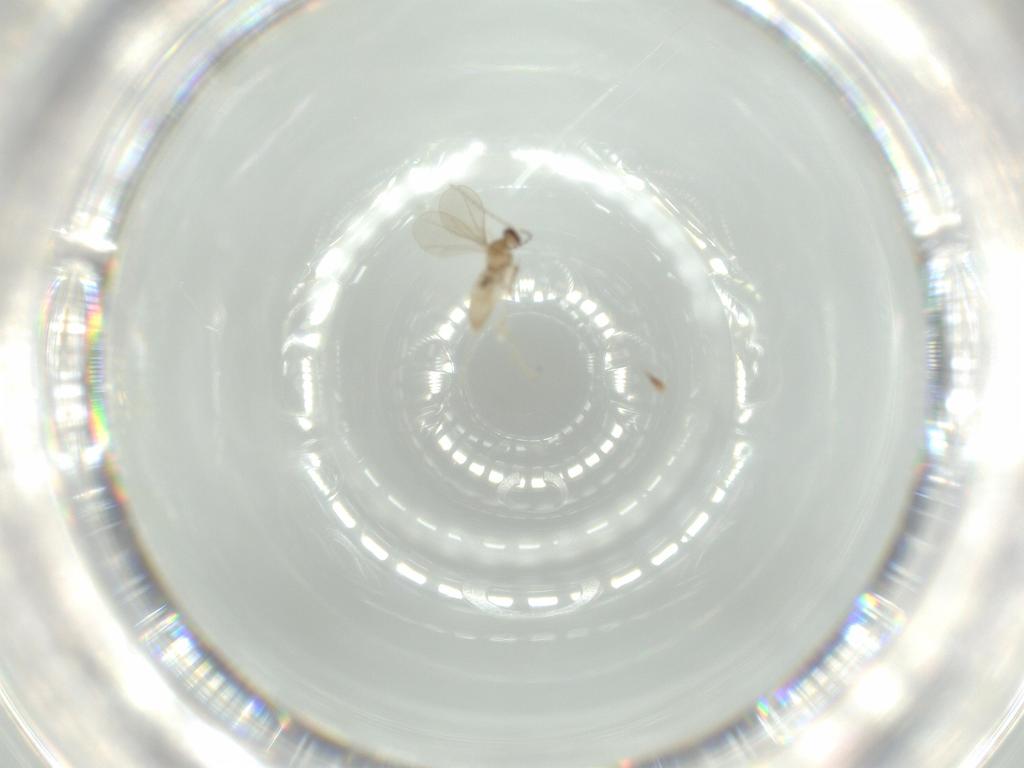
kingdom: Animalia
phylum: Arthropoda
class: Insecta
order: Diptera
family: Cecidomyiidae
